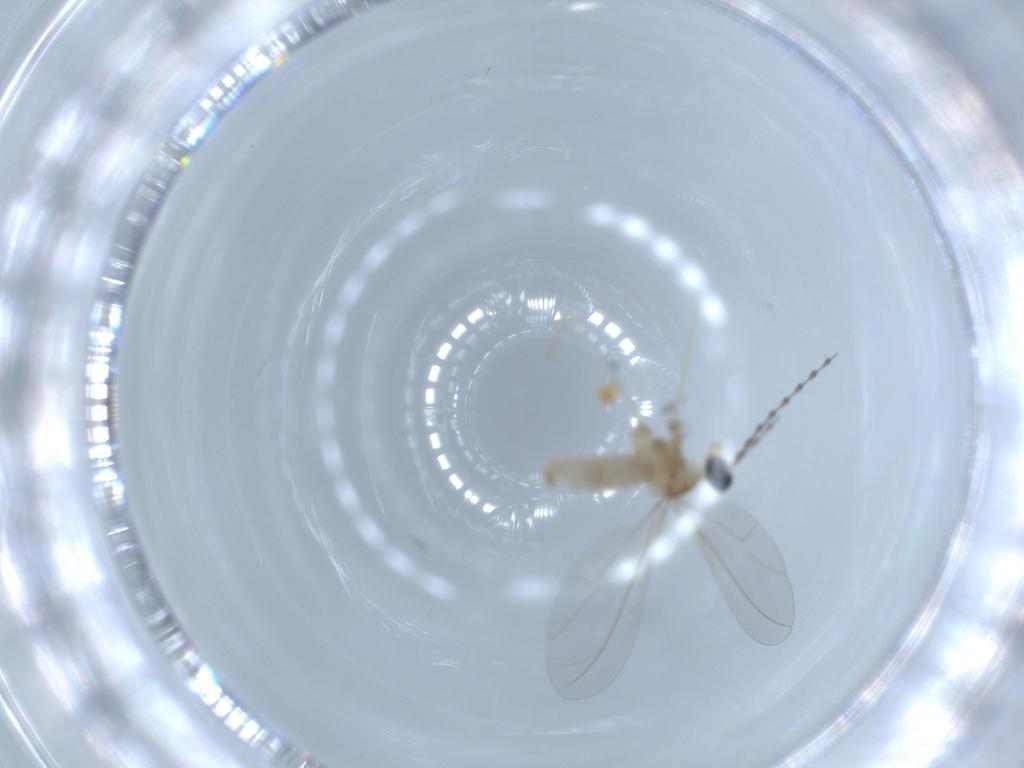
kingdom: Animalia
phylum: Arthropoda
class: Insecta
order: Diptera
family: Cecidomyiidae
